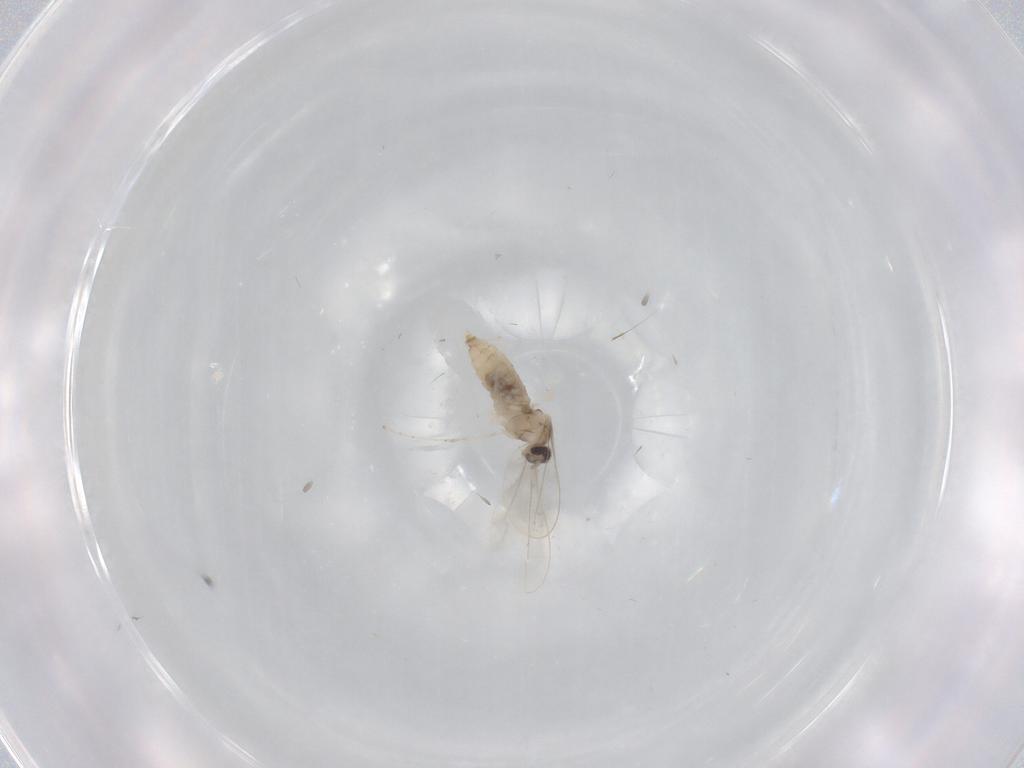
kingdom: Animalia
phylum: Arthropoda
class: Insecta
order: Diptera
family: Cecidomyiidae
